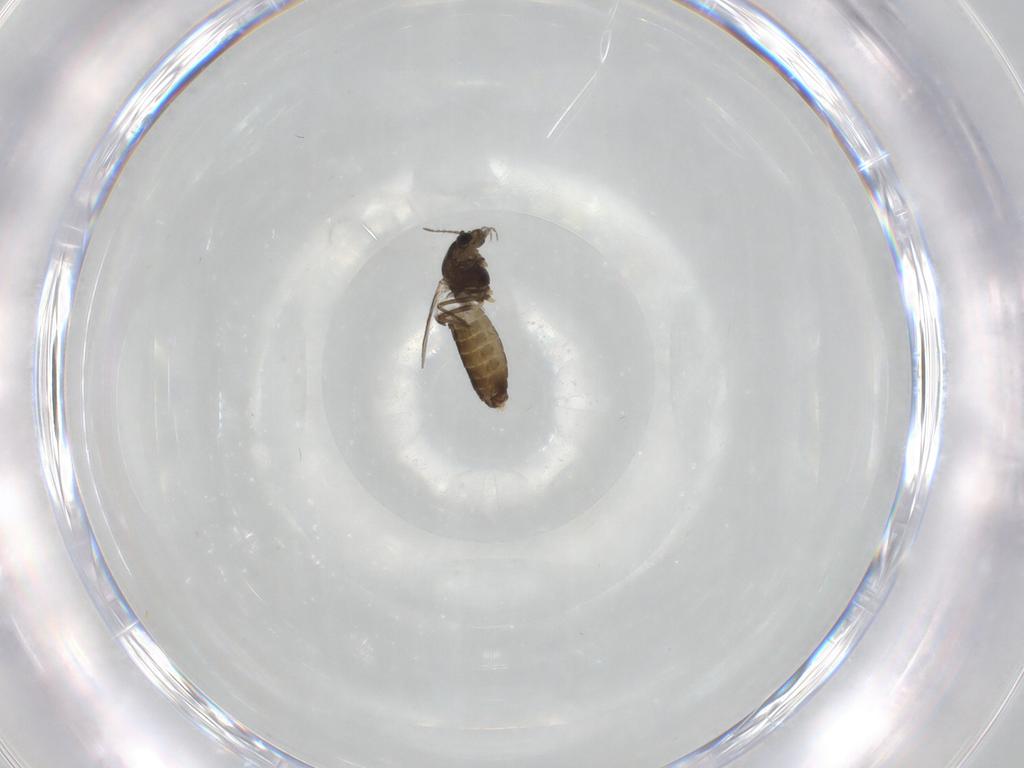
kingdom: Animalia
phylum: Arthropoda
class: Insecta
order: Diptera
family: Chironomidae
